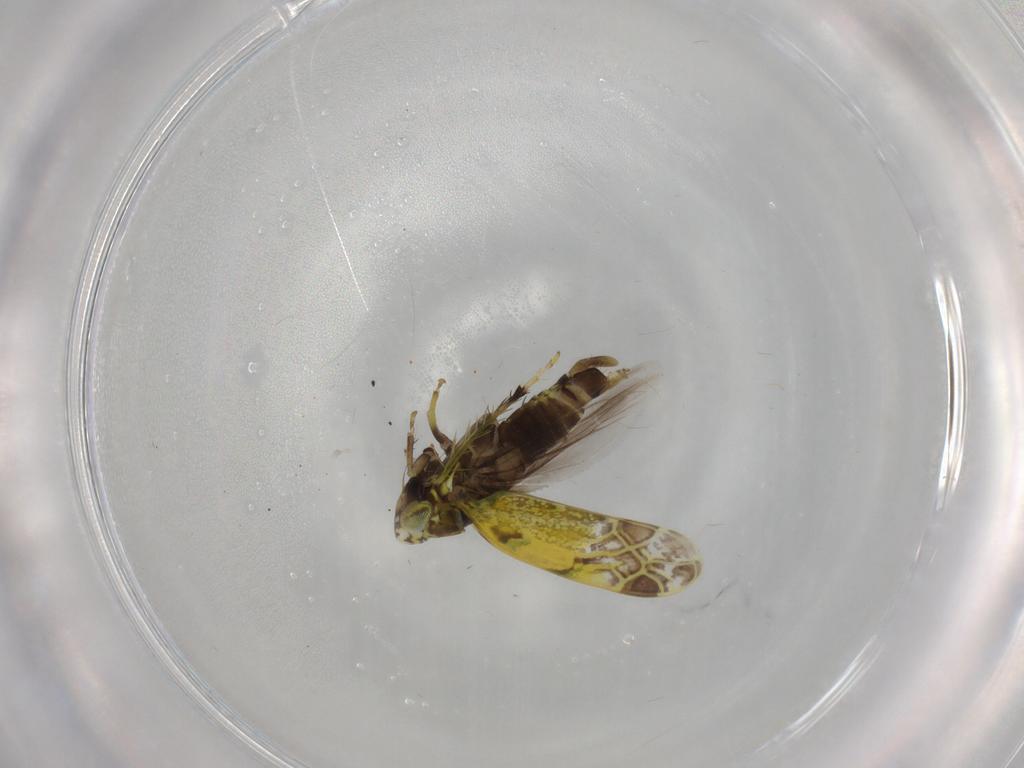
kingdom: Animalia
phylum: Arthropoda
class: Insecta
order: Hemiptera
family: Cicadellidae
